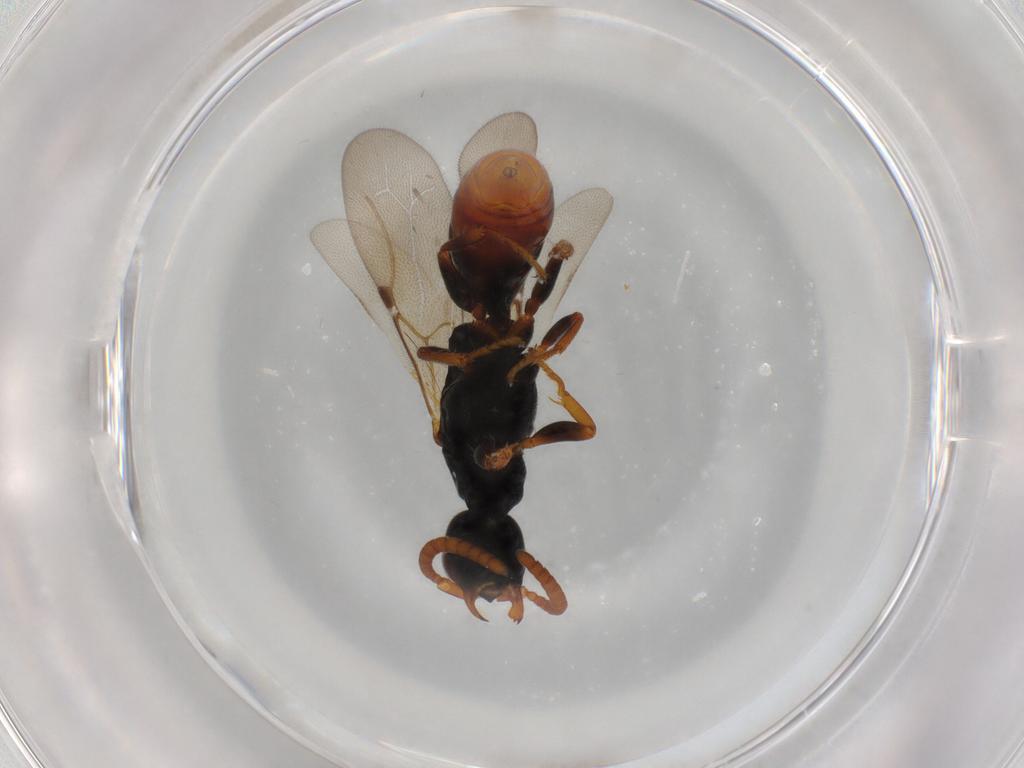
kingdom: Animalia
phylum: Arthropoda
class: Insecta
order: Hymenoptera
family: Bethylidae
